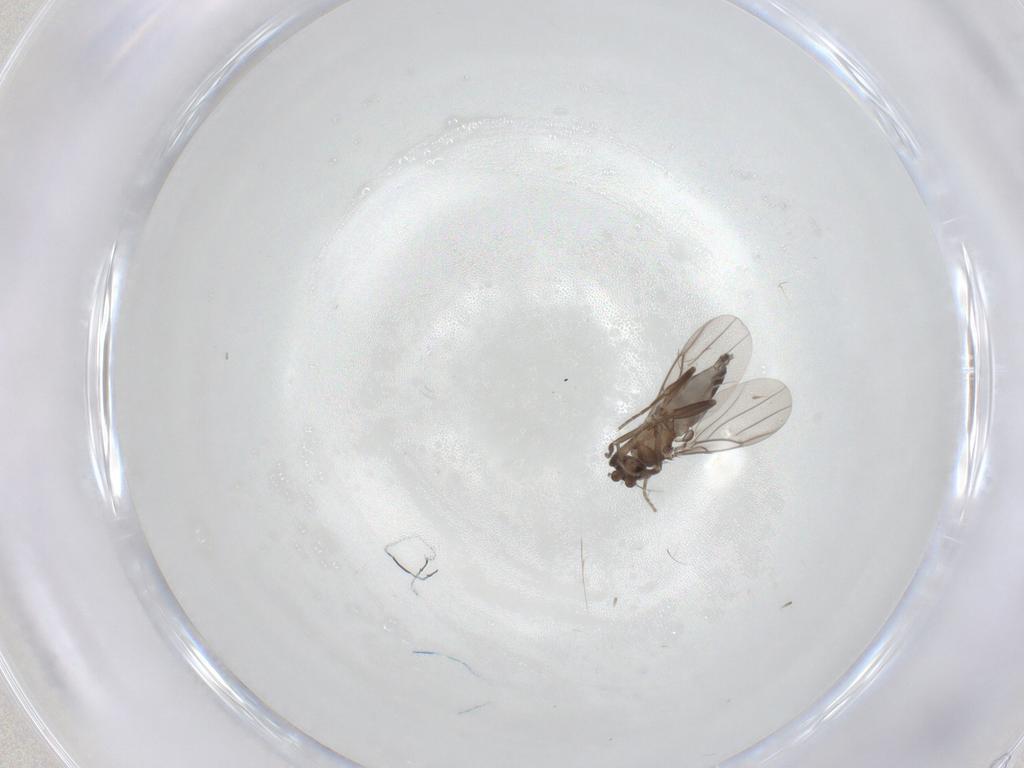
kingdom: Animalia
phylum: Arthropoda
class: Insecta
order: Diptera
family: Phoridae
